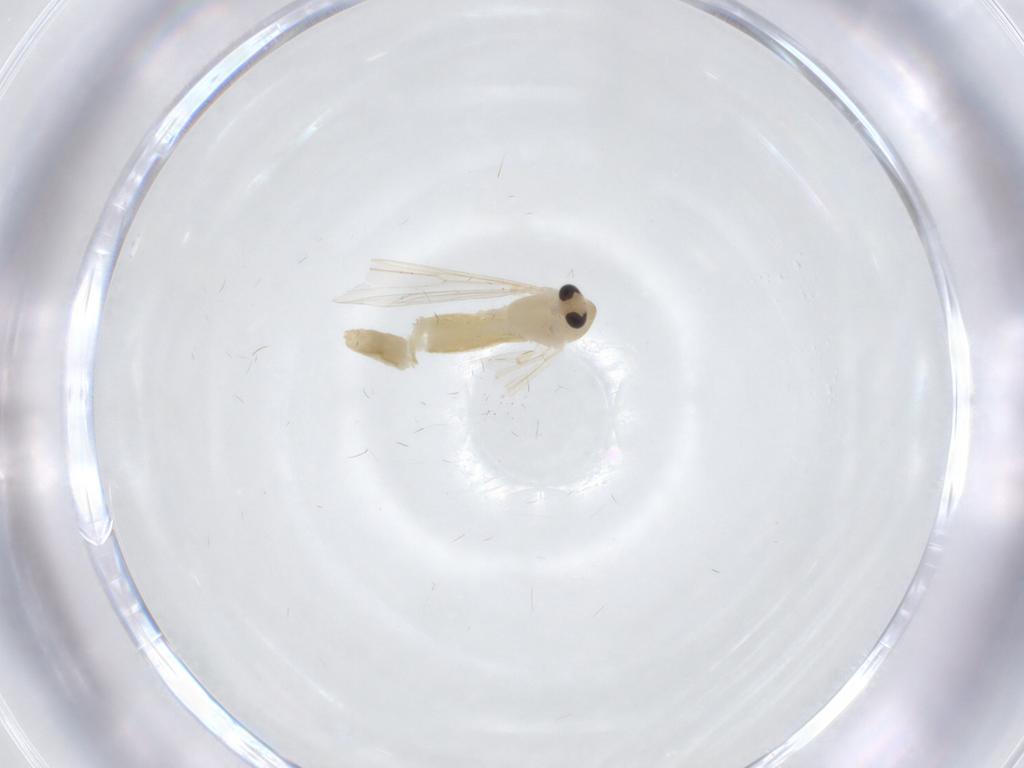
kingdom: Animalia
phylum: Arthropoda
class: Insecta
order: Diptera
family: Chironomidae
